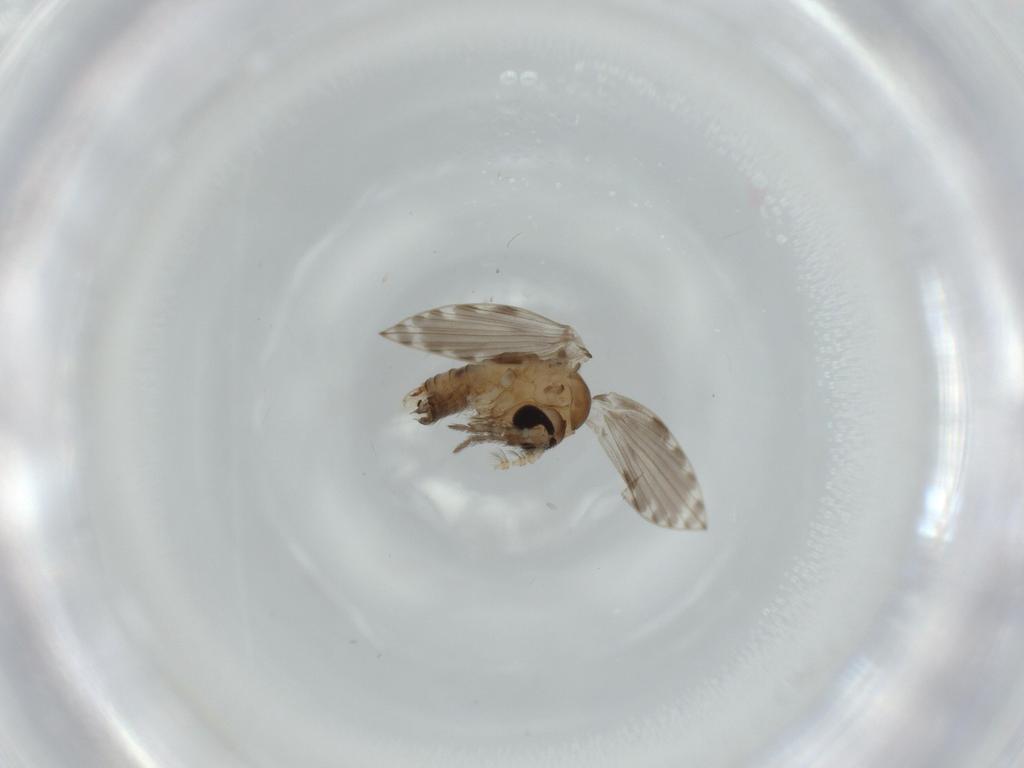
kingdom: Animalia
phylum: Arthropoda
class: Insecta
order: Diptera
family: Psychodidae
